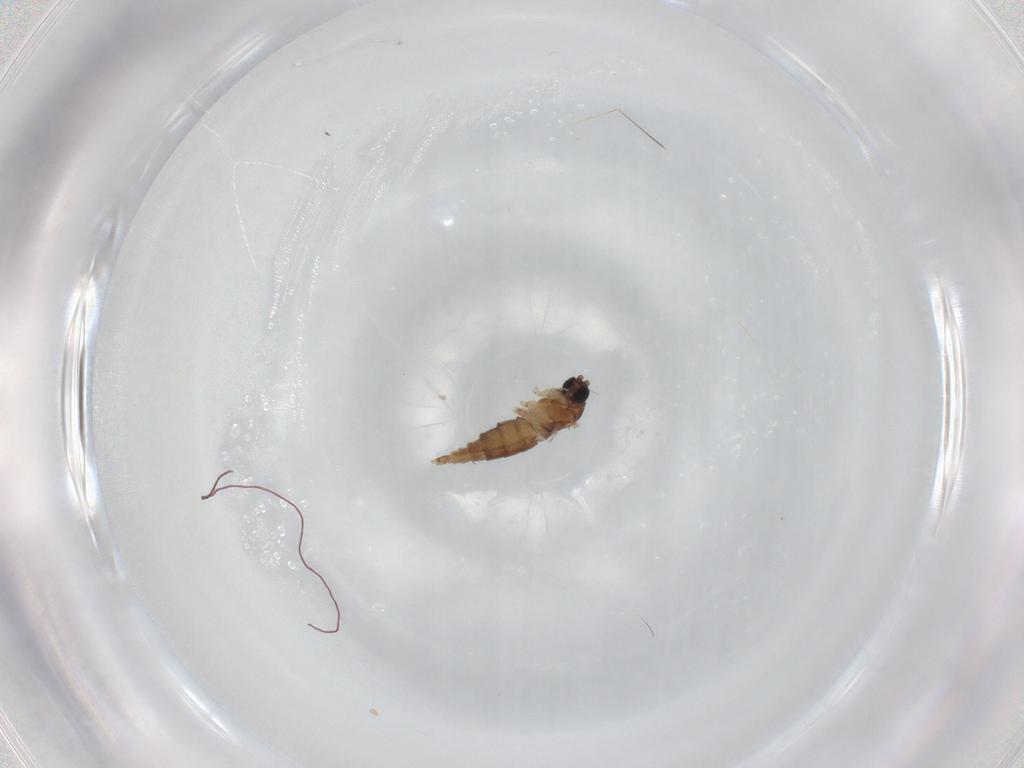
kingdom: Animalia
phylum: Arthropoda
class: Insecta
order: Diptera
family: Sciaridae
